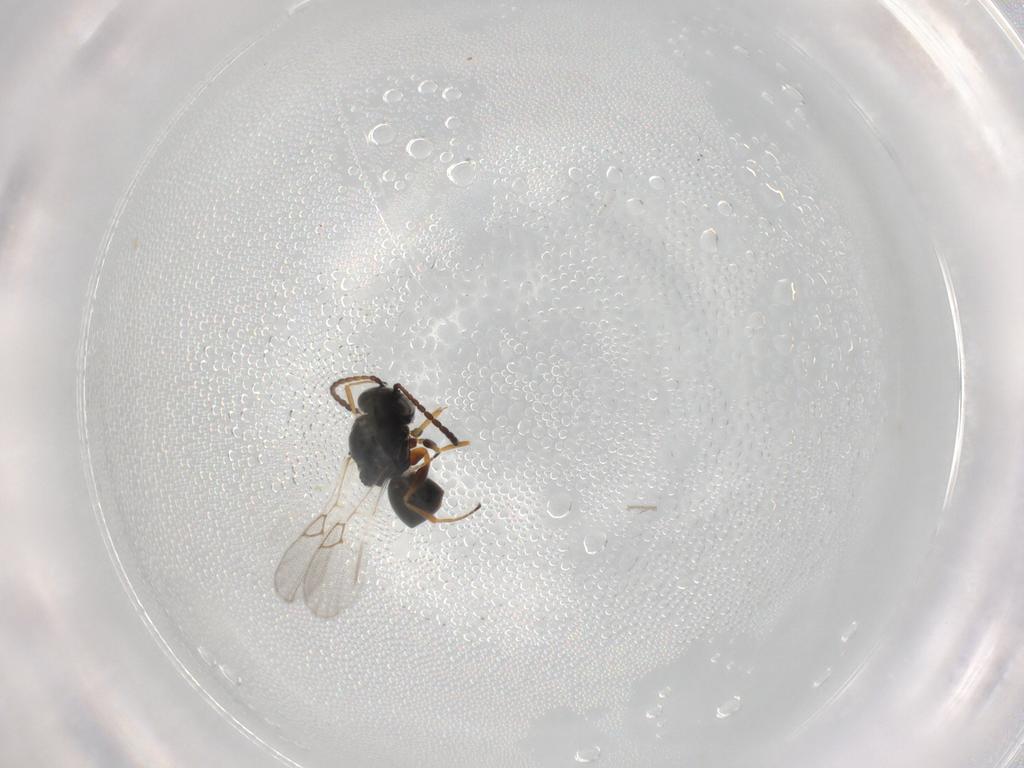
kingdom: Animalia
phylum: Arthropoda
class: Insecta
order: Hymenoptera
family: Figitidae
